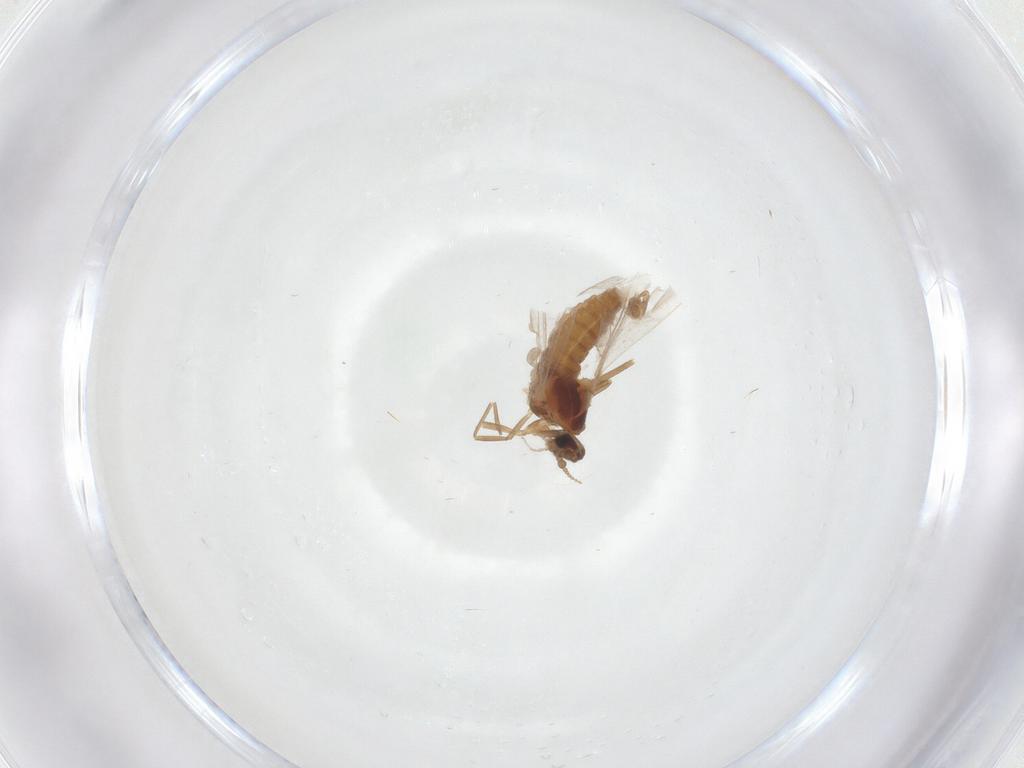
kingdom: Animalia
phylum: Arthropoda
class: Insecta
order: Diptera
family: Cecidomyiidae
